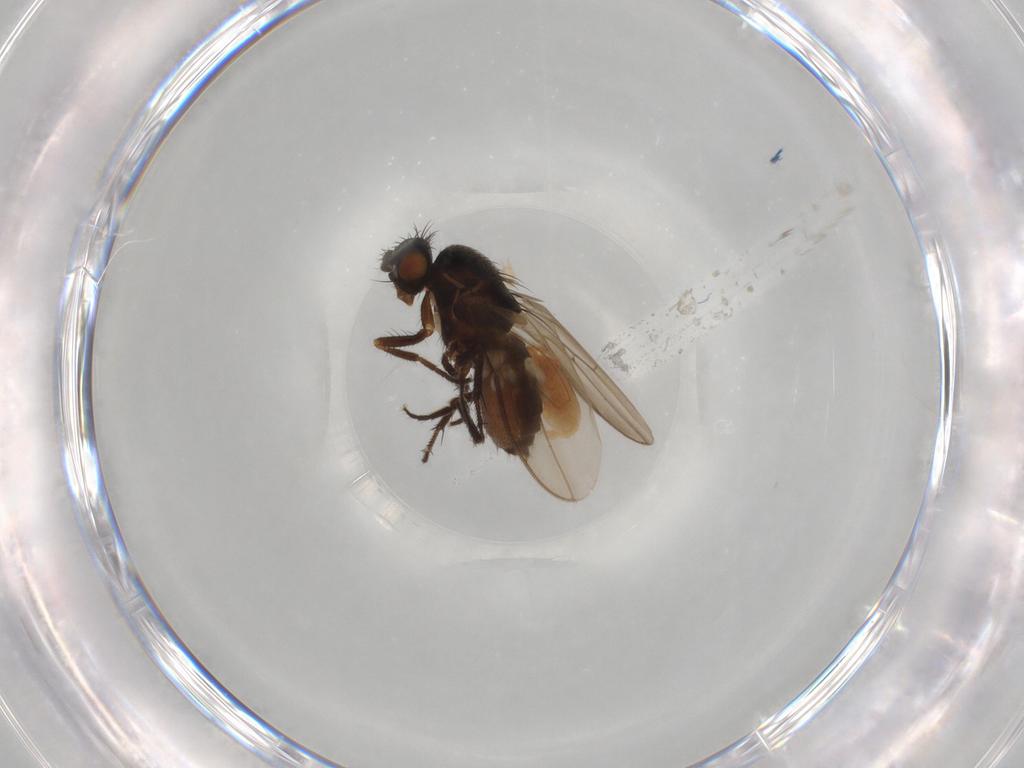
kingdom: Animalia
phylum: Arthropoda
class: Insecta
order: Diptera
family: Sphaeroceridae
